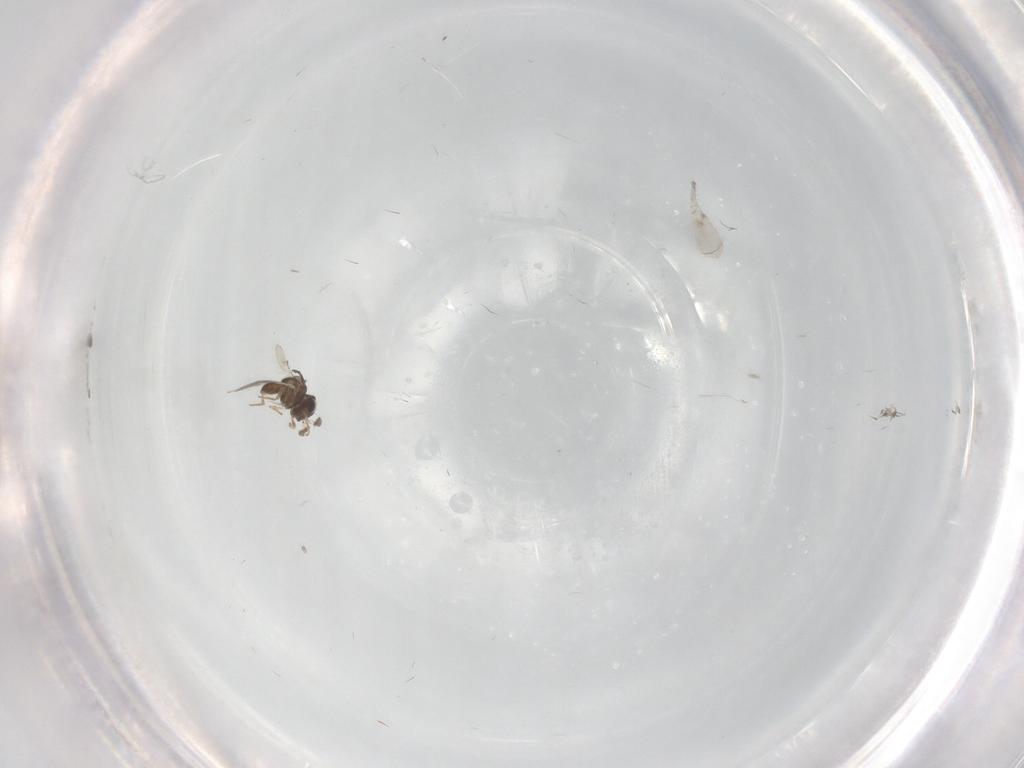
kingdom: Animalia
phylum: Arthropoda
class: Insecta
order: Hymenoptera
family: Scelionidae
